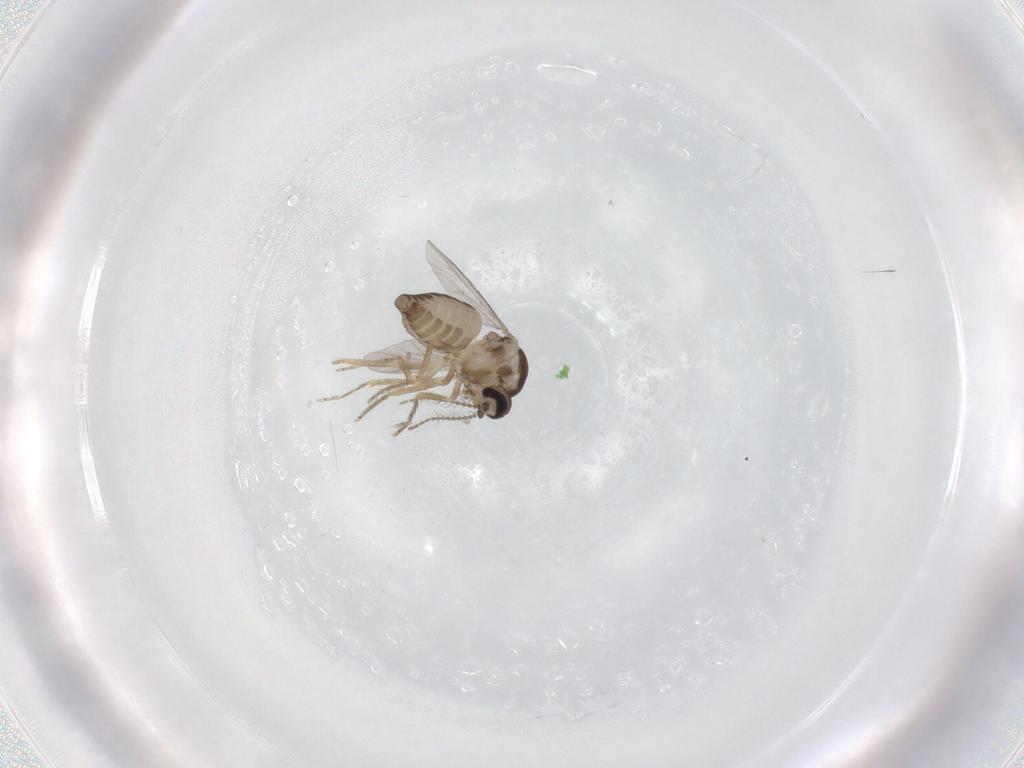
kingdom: Animalia
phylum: Arthropoda
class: Insecta
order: Diptera
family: Ceratopogonidae
